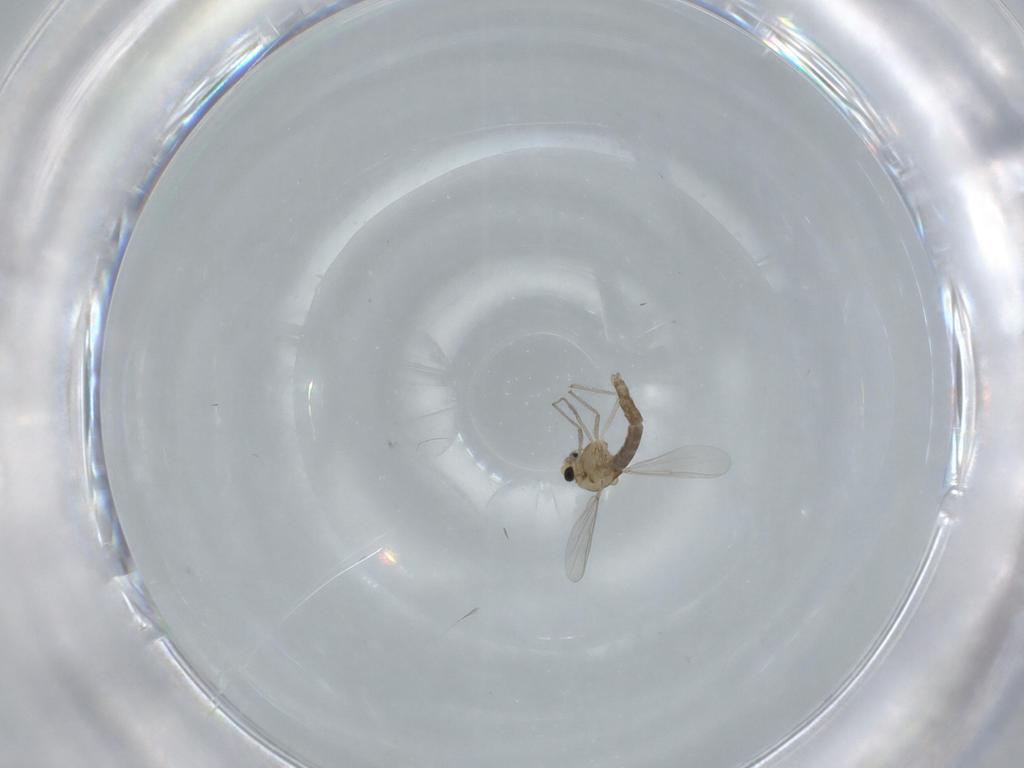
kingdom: Animalia
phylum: Arthropoda
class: Insecta
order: Diptera
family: Chironomidae
